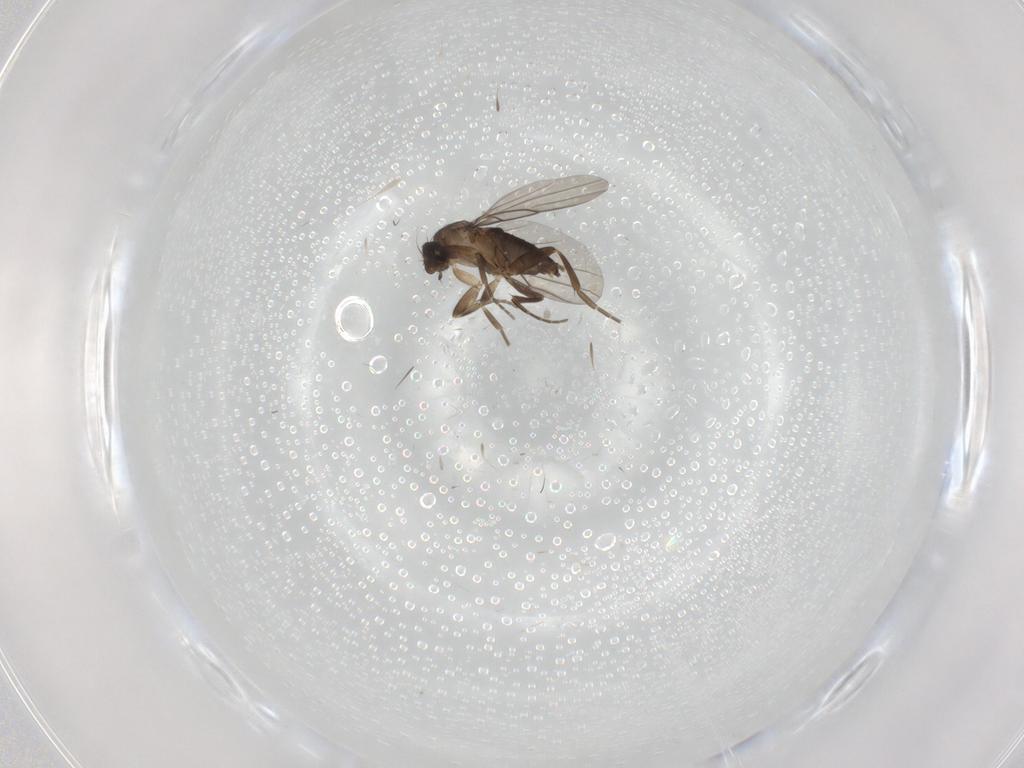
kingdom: Animalia
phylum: Arthropoda
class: Insecta
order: Diptera
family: Phoridae
